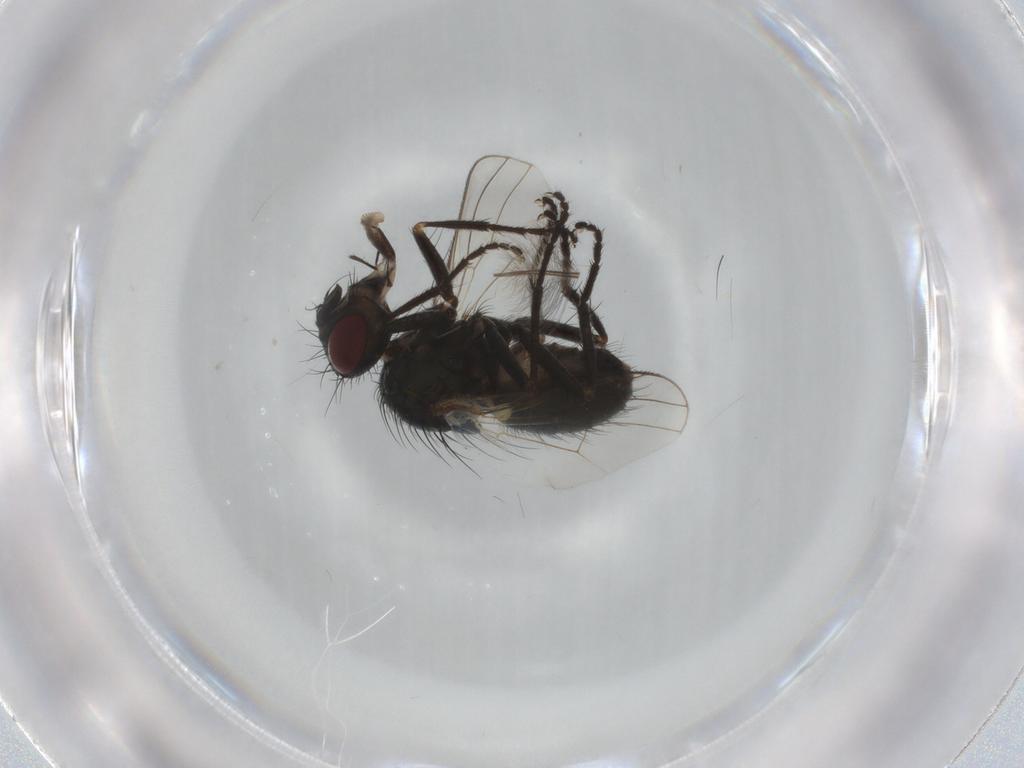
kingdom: Animalia
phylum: Arthropoda
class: Insecta
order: Diptera
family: Muscidae
